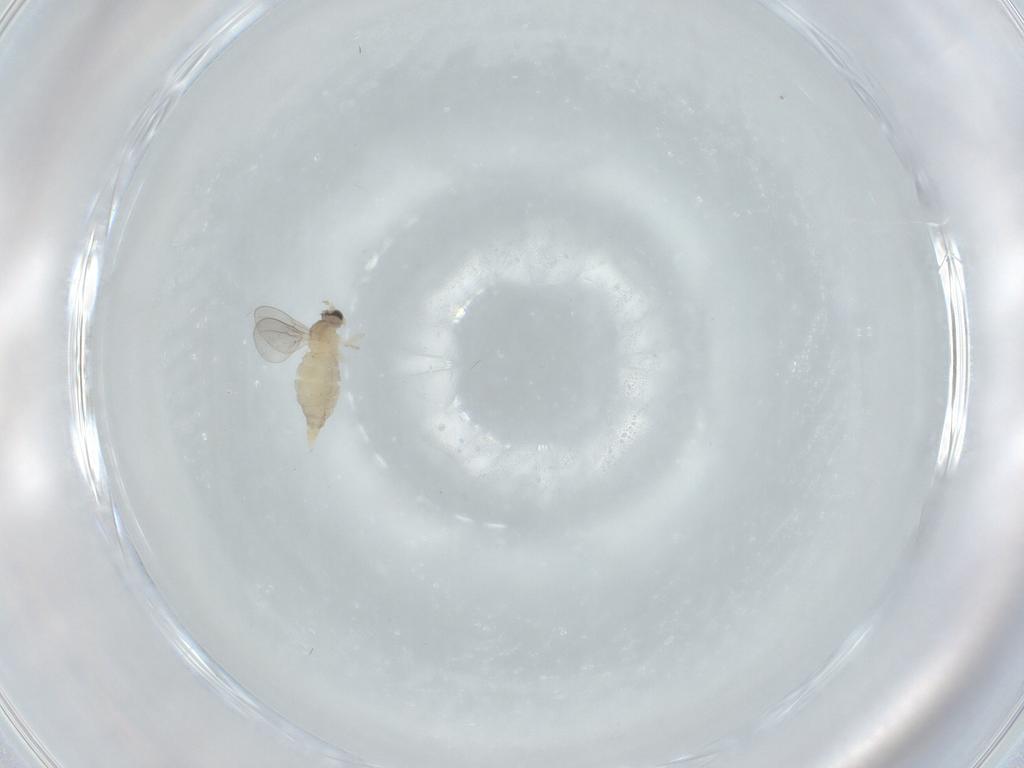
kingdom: Animalia
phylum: Arthropoda
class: Insecta
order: Diptera
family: Cecidomyiidae
